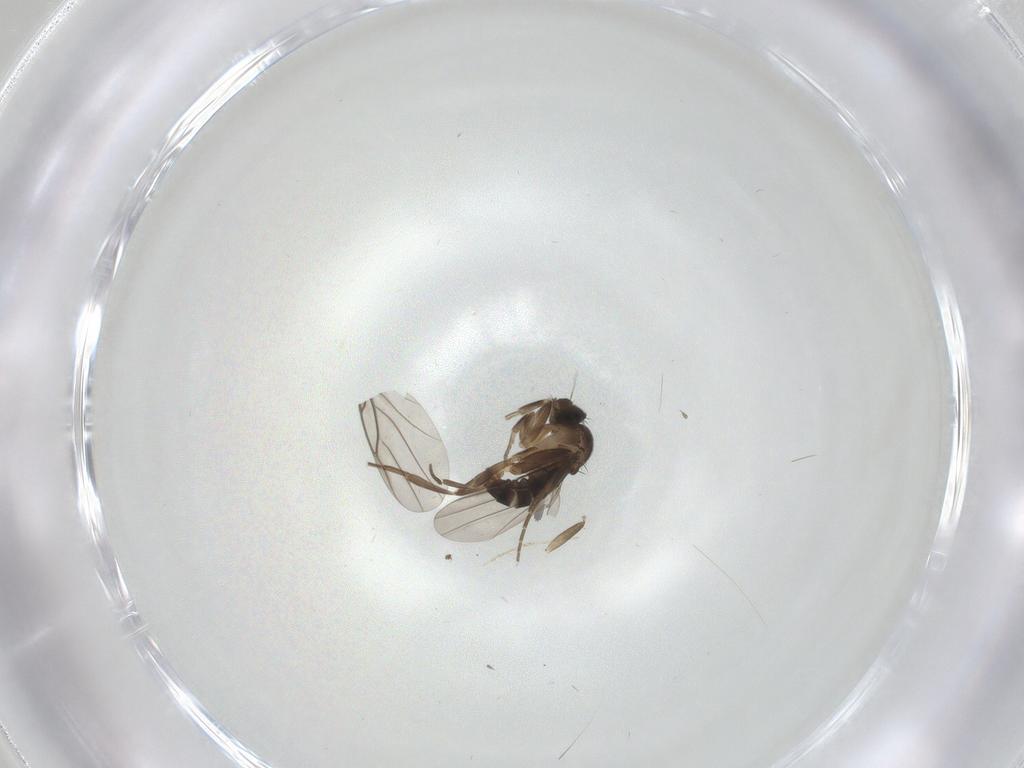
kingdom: Animalia
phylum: Arthropoda
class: Insecta
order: Diptera
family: Phoridae
